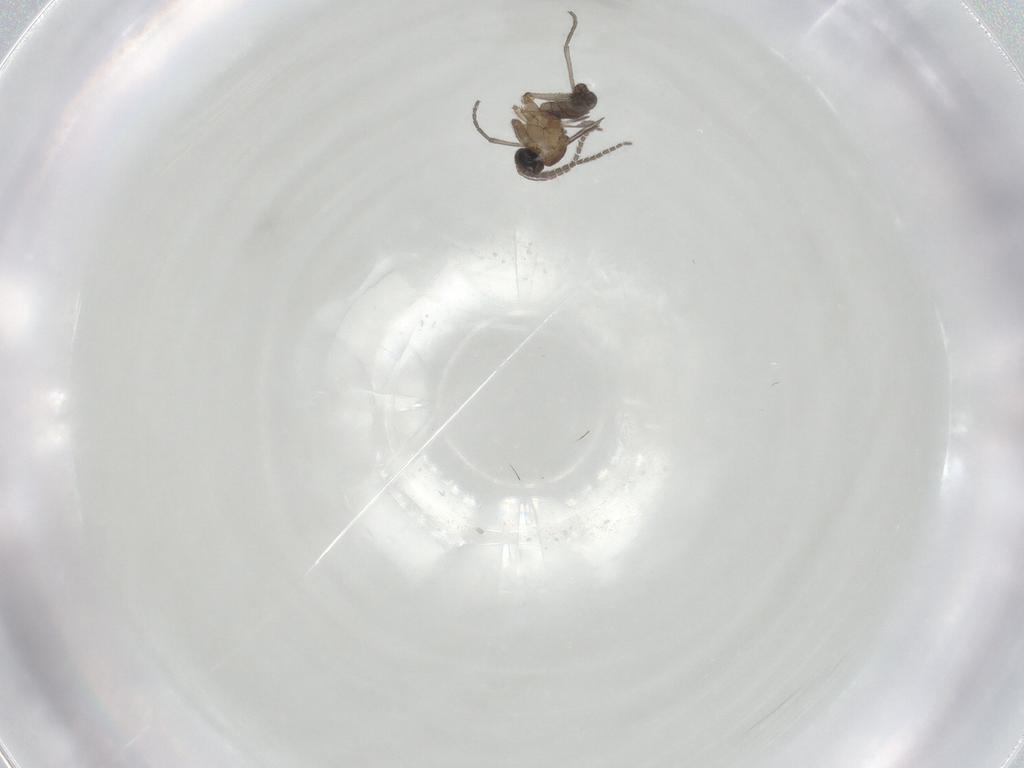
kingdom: Animalia
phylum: Arthropoda
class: Insecta
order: Diptera
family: Sciaridae
